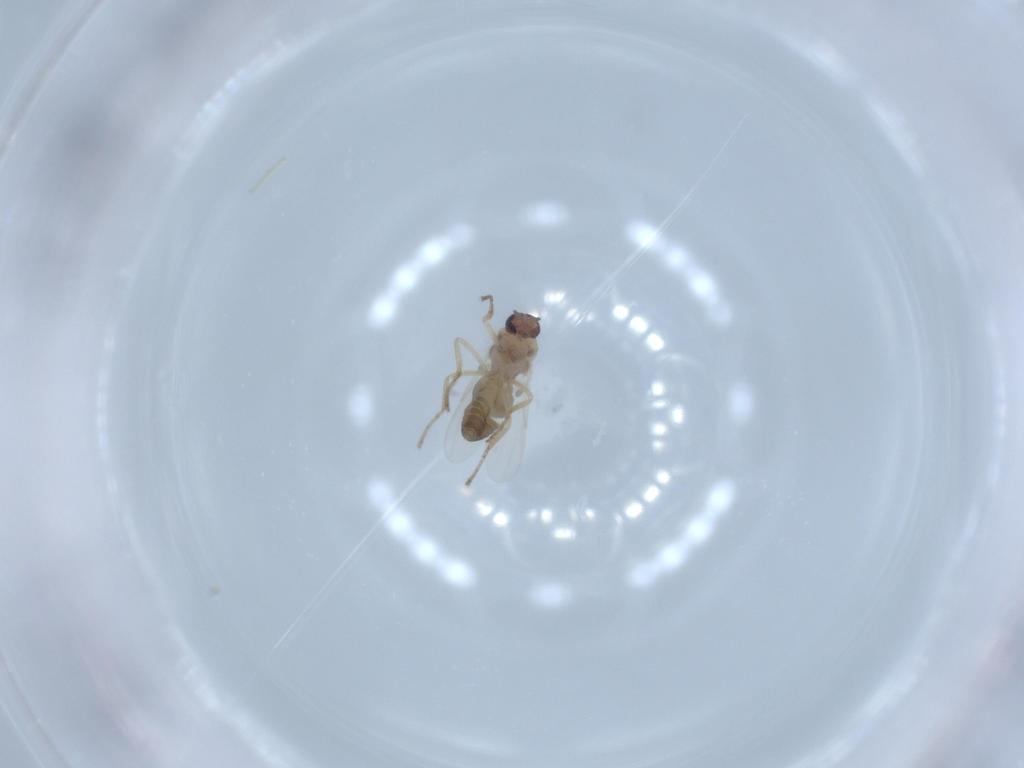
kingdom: Animalia
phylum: Arthropoda
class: Insecta
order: Diptera
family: Ceratopogonidae
